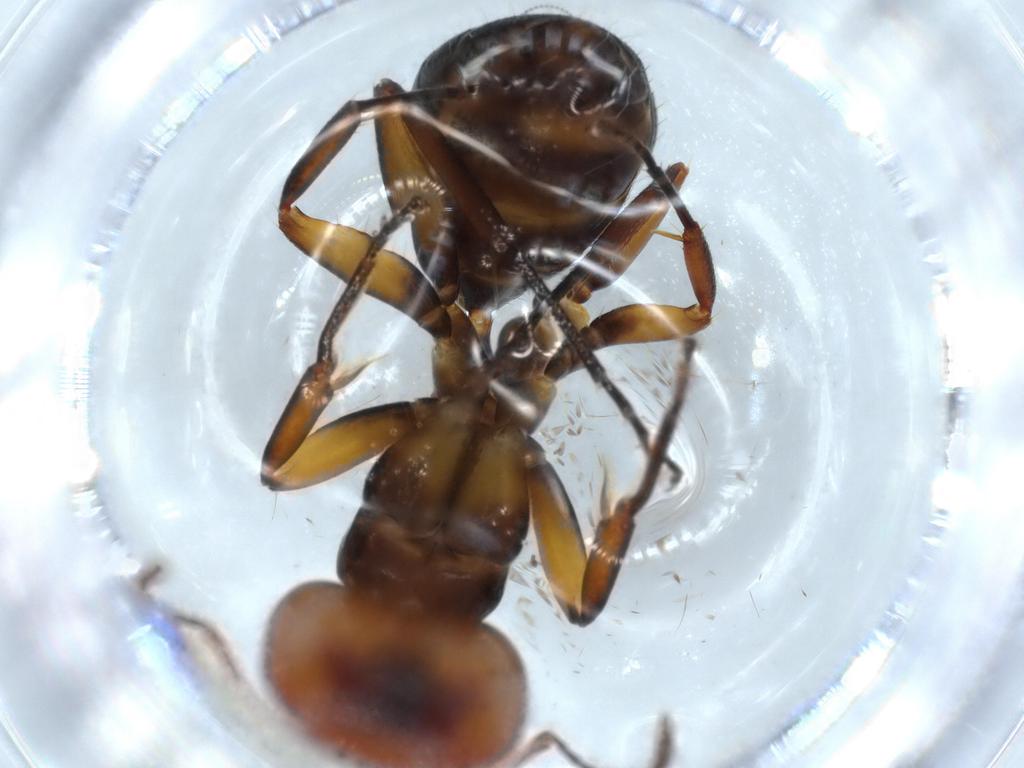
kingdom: Animalia
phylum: Arthropoda
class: Insecta
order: Hymenoptera
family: Formicidae
